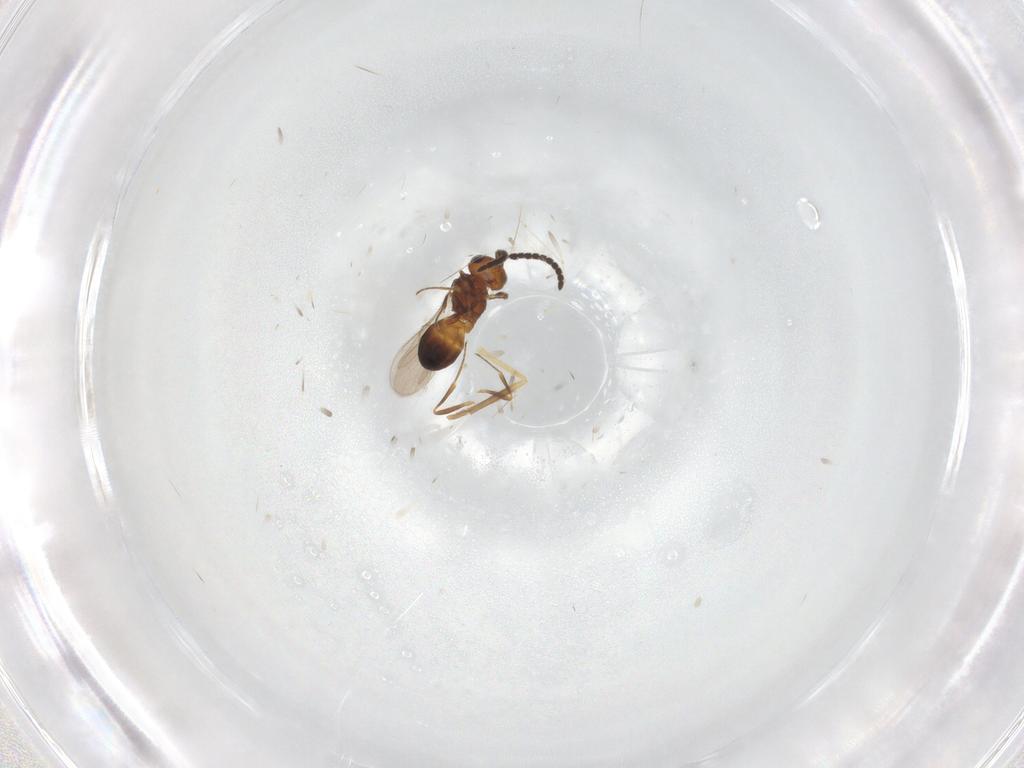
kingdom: Animalia
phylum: Arthropoda
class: Insecta
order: Hymenoptera
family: Scelionidae
